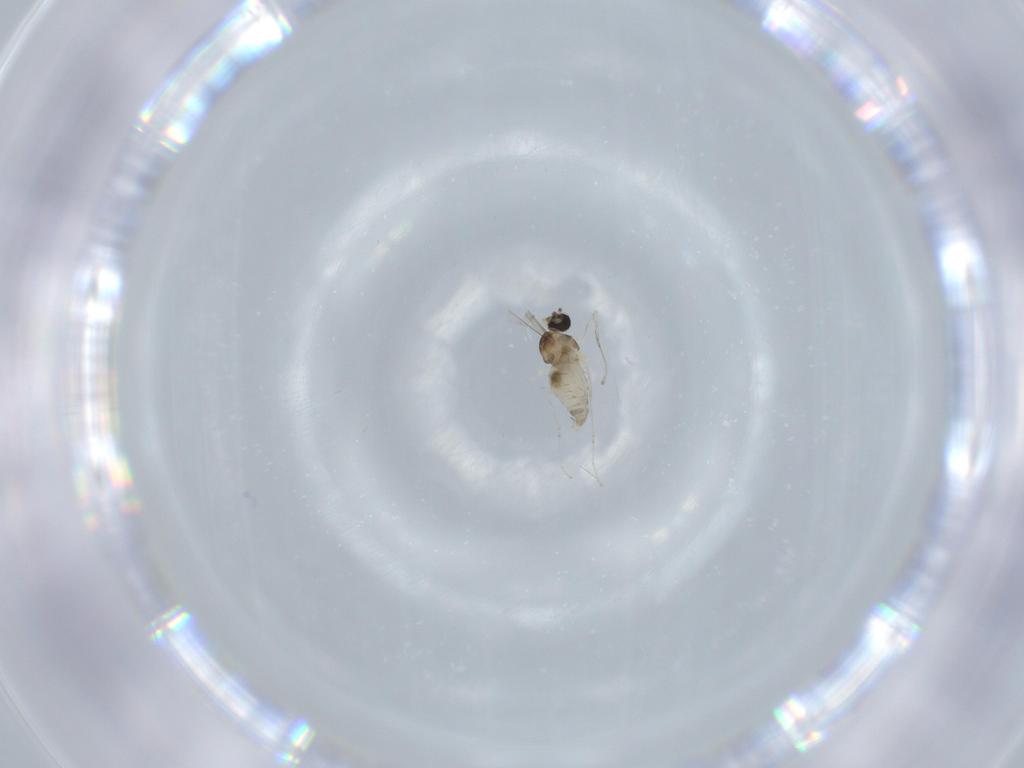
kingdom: Animalia
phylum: Arthropoda
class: Insecta
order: Diptera
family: Cecidomyiidae
